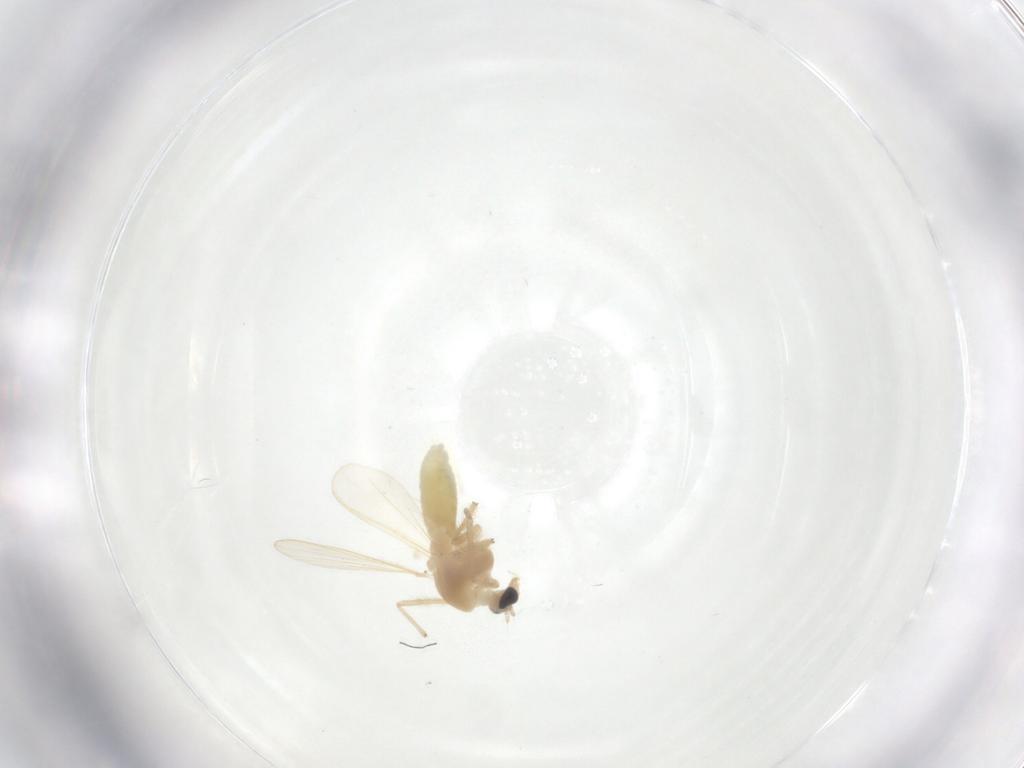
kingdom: Animalia
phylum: Arthropoda
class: Insecta
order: Diptera
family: Chironomidae
